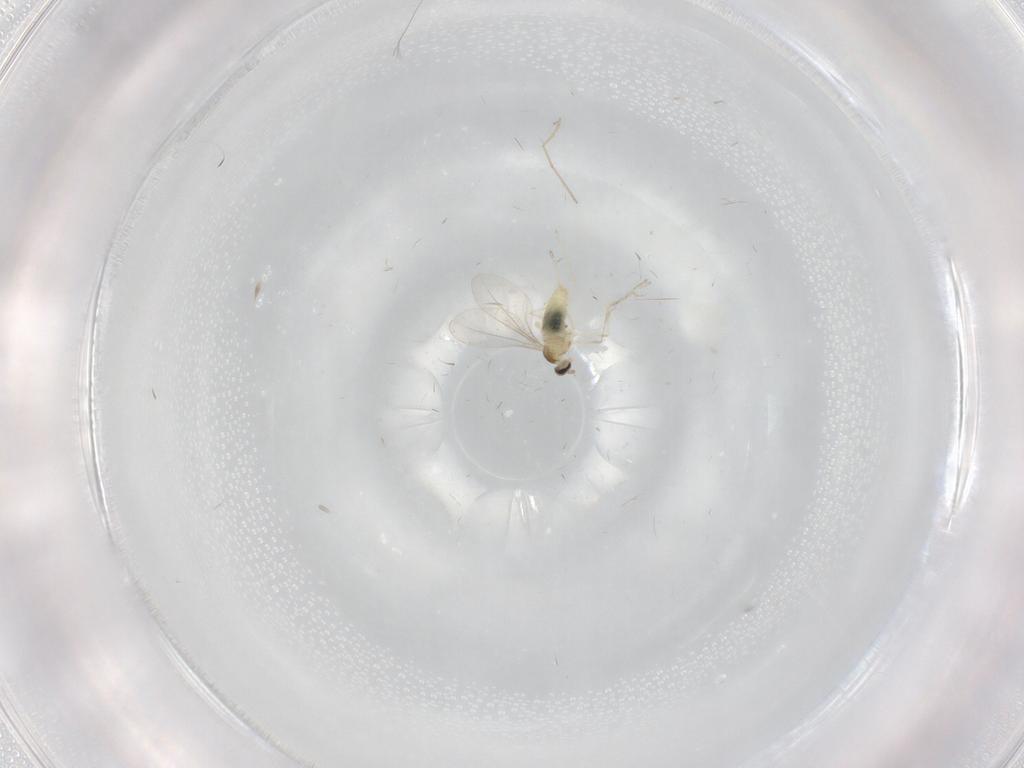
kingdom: Animalia
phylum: Arthropoda
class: Insecta
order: Diptera
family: Chironomidae
